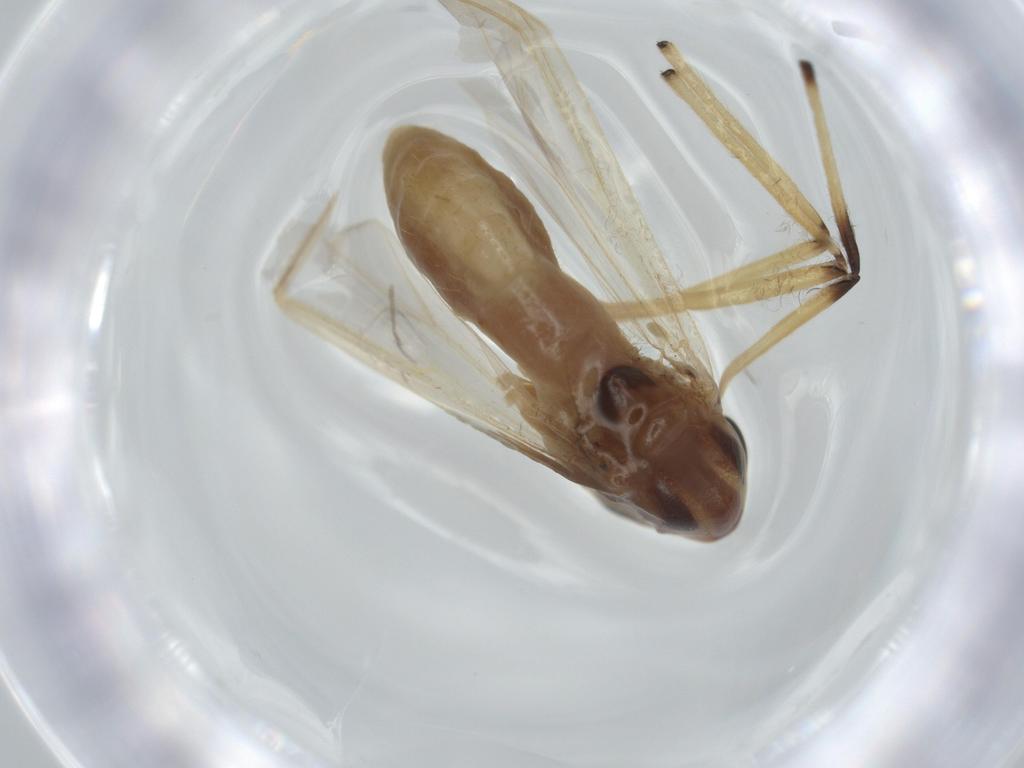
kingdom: Animalia
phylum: Arthropoda
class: Insecta
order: Diptera
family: Chironomidae
